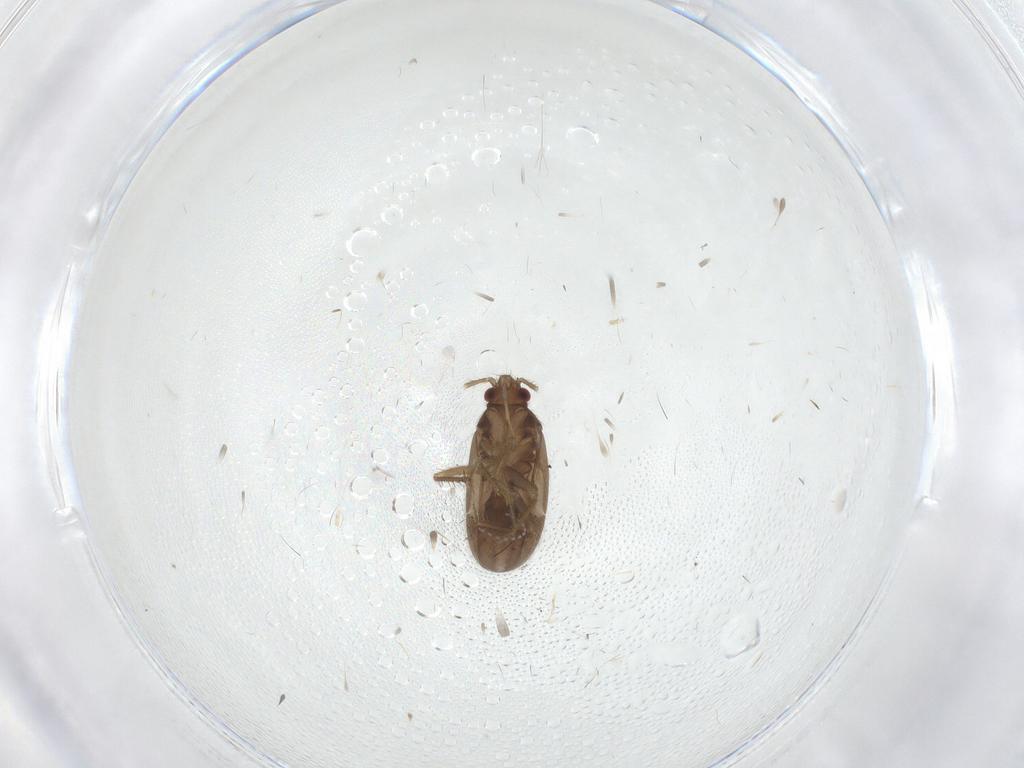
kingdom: Animalia
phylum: Arthropoda
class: Insecta
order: Hemiptera
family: Ceratocombidae
